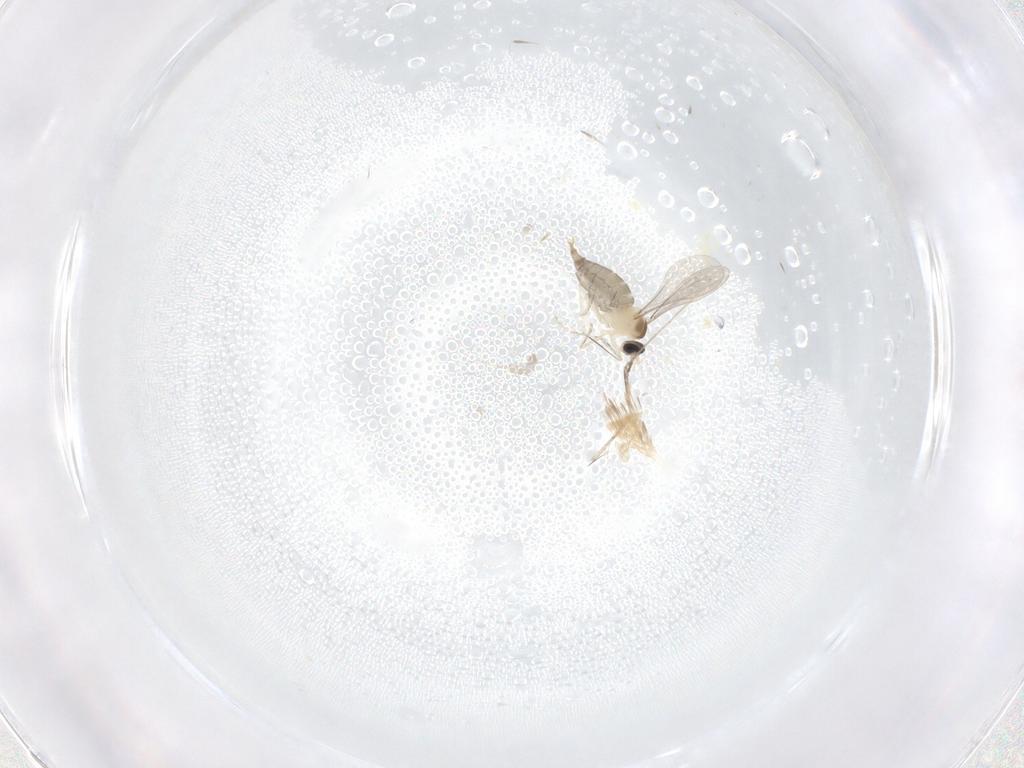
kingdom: Animalia
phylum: Arthropoda
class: Insecta
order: Diptera
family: Cecidomyiidae
